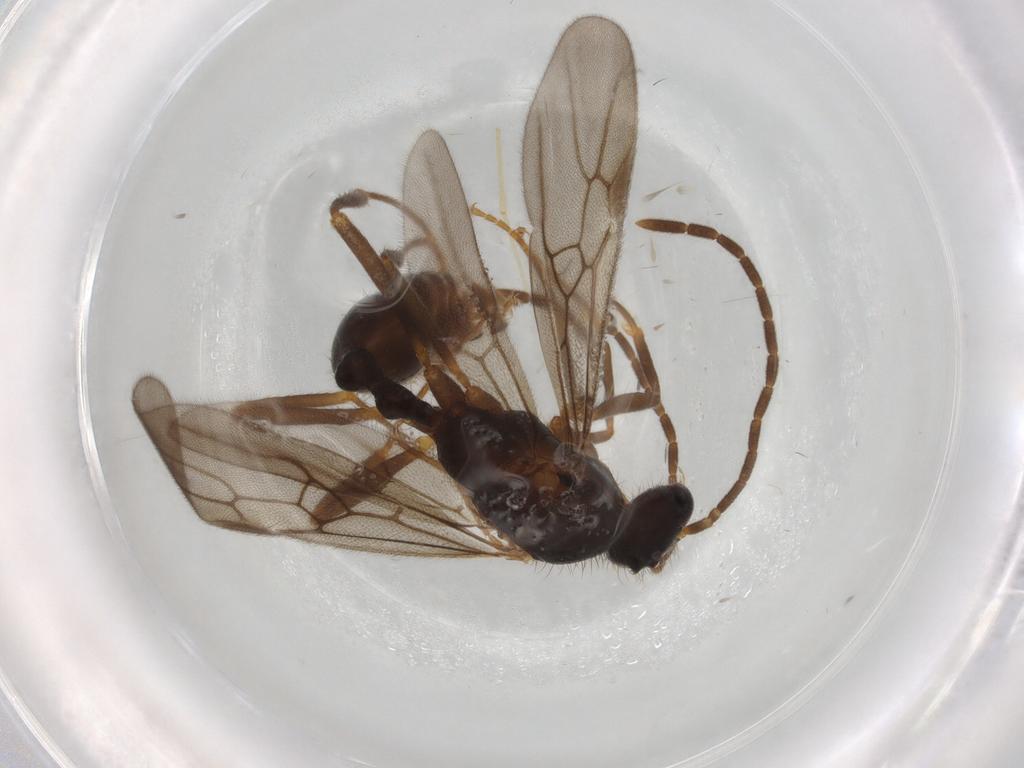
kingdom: Animalia
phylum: Arthropoda
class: Insecta
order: Hymenoptera
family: Formicidae
